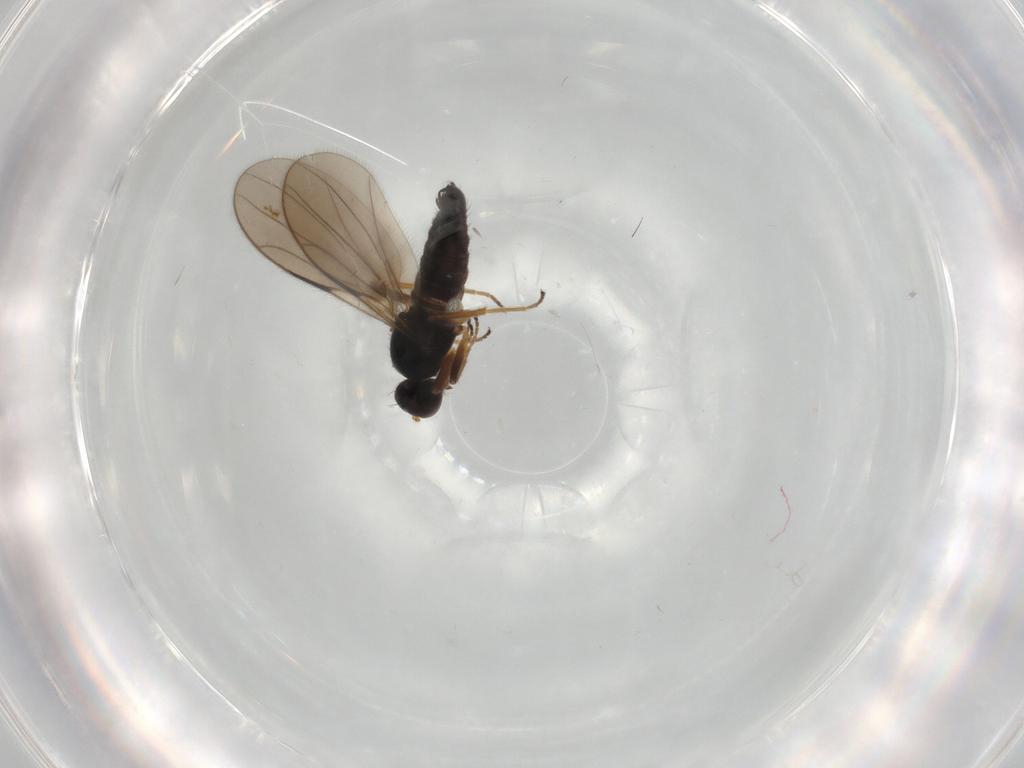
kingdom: Animalia
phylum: Arthropoda
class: Insecta
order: Diptera
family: Hybotidae
